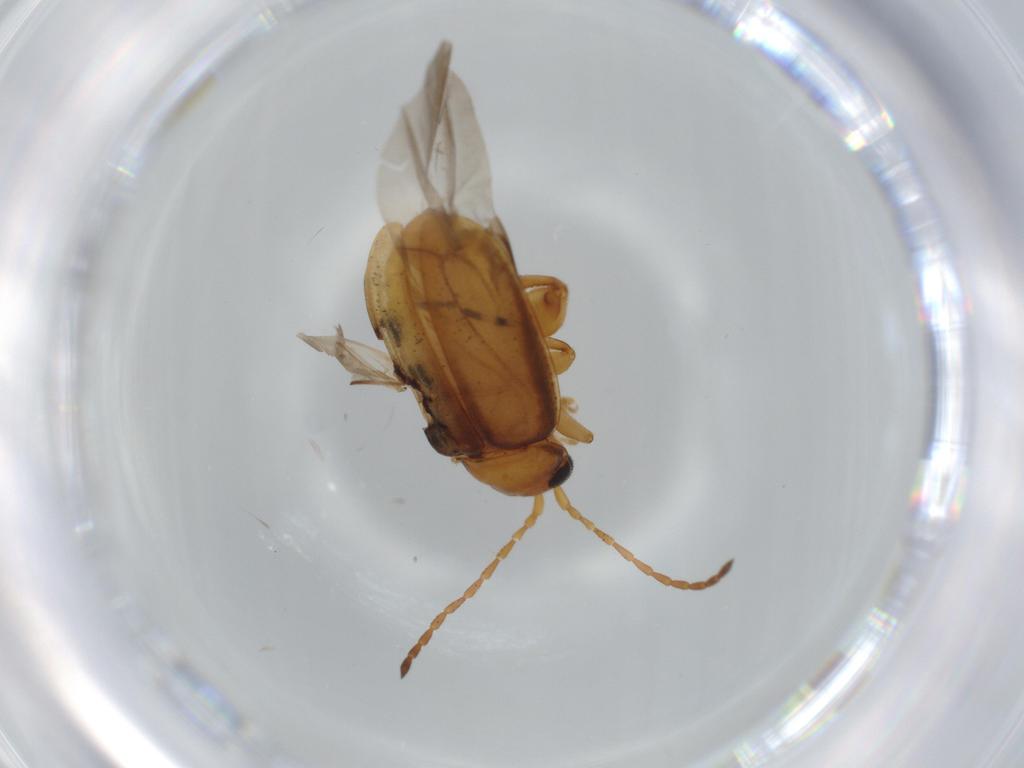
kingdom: Animalia
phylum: Arthropoda
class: Insecta
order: Coleoptera
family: Chrysomelidae
